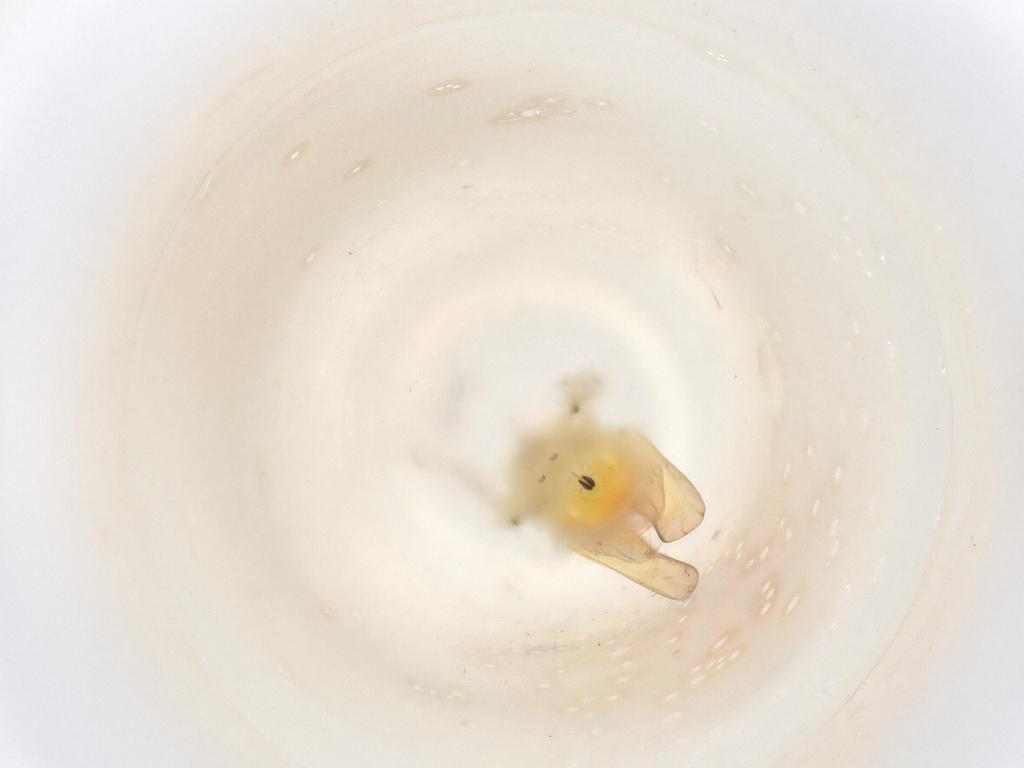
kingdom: Animalia
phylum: Arthropoda
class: Insecta
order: Hemiptera
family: Cicadellidae
